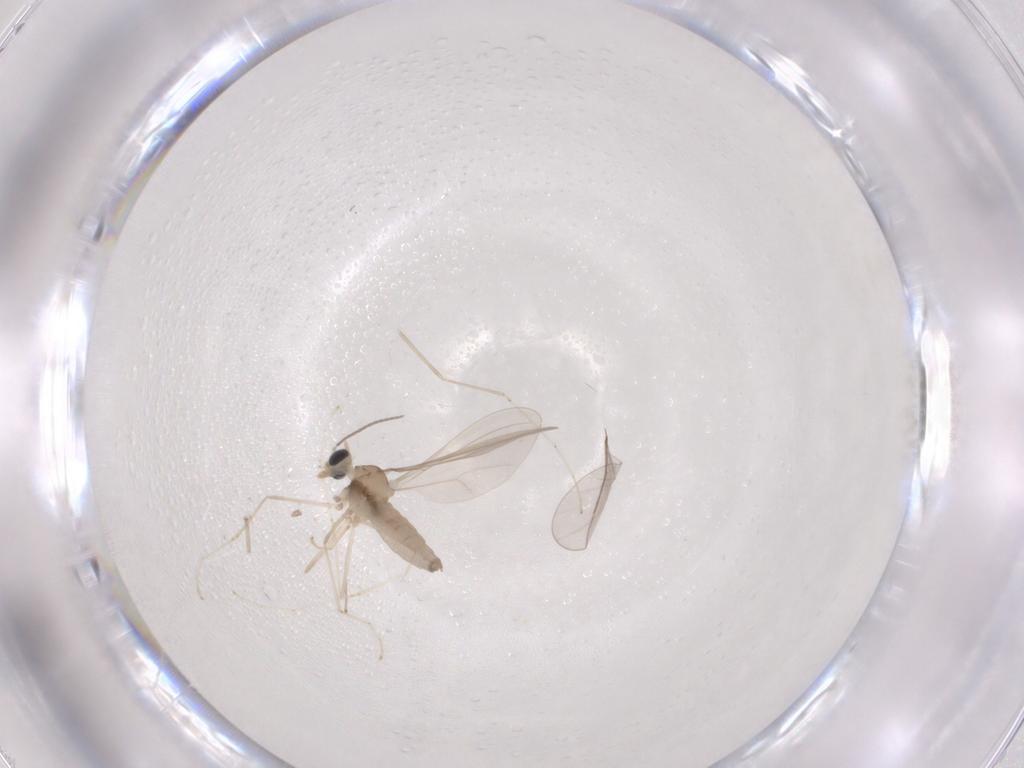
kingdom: Animalia
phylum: Arthropoda
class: Insecta
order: Diptera
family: Cecidomyiidae
